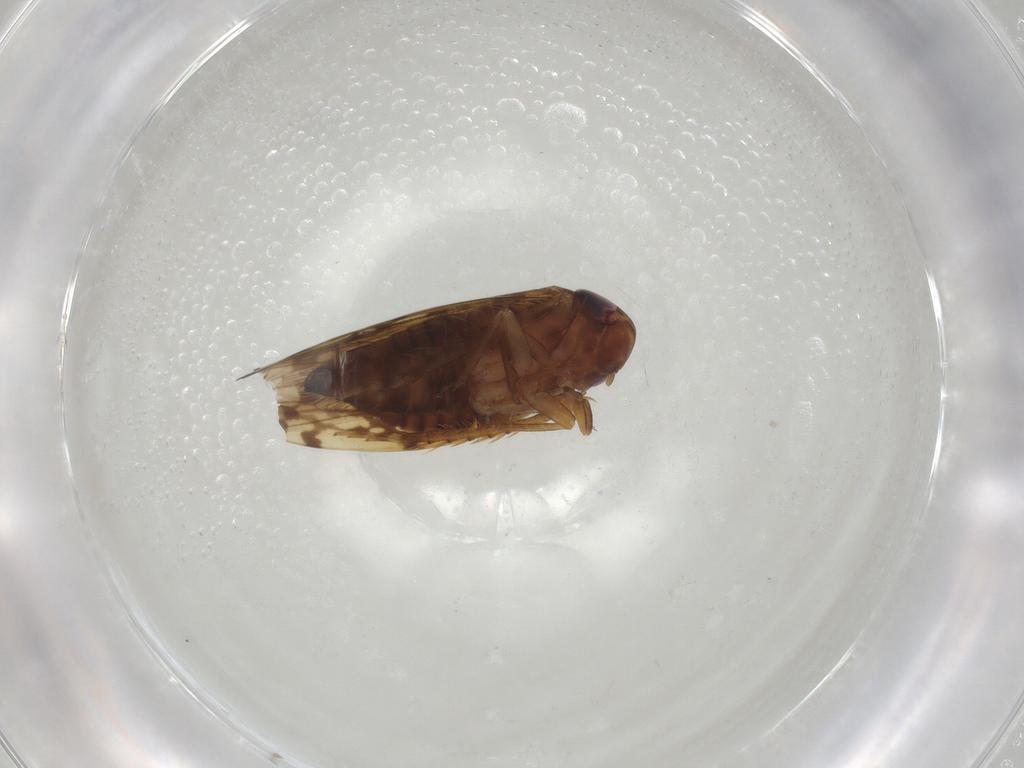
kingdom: Animalia
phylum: Arthropoda
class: Insecta
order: Hemiptera
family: Cicadellidae
